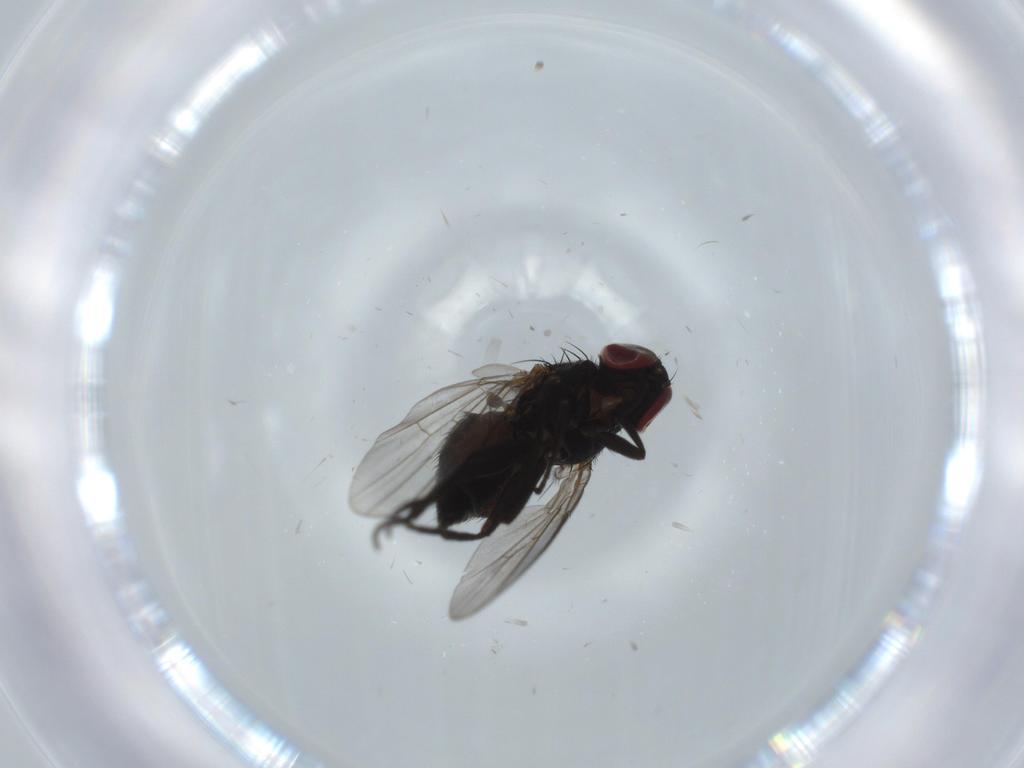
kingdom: Animalia
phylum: Arthropoda
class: Insecta
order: Diptera
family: Agromyzidae
